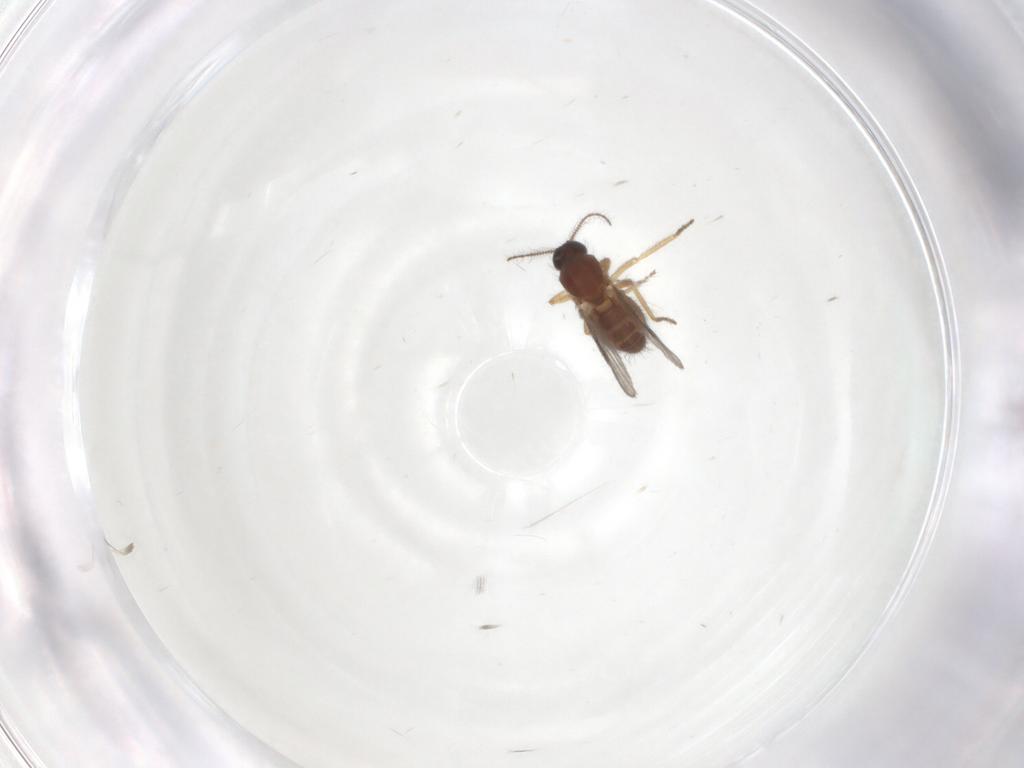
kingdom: Animalia
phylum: Arthropoda
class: Insecta
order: Diptera
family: Ceratopogonidae
